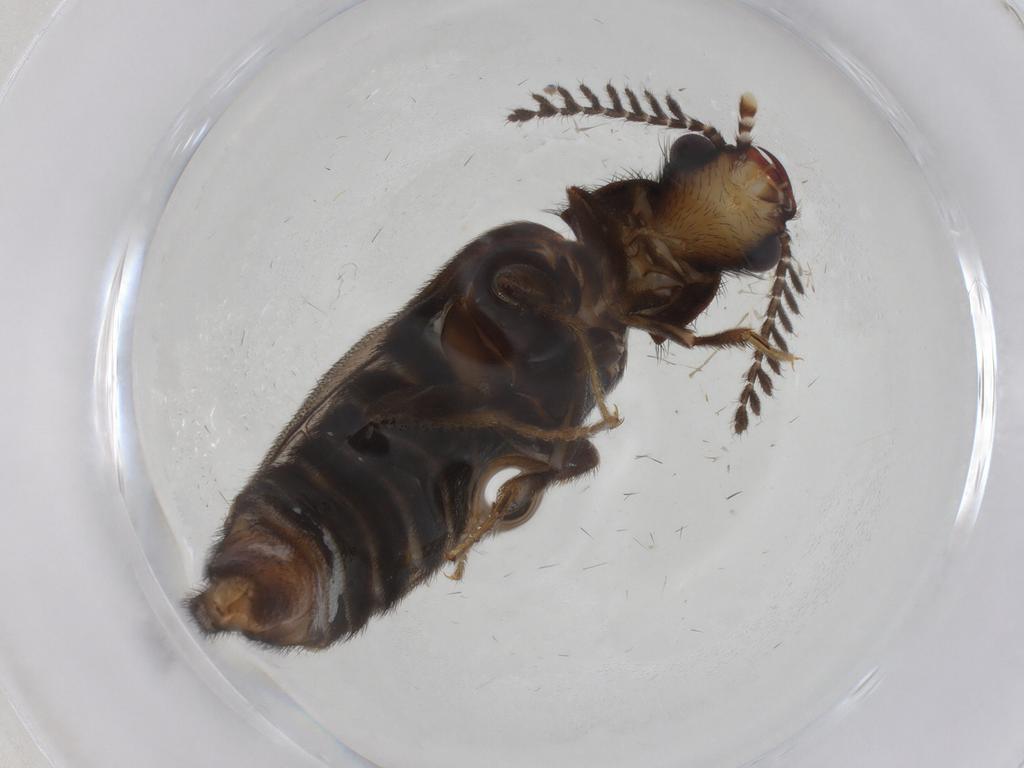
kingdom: Animalia
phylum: Arthropoda
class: Insecta
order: Coleoptera
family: Phengodidae
